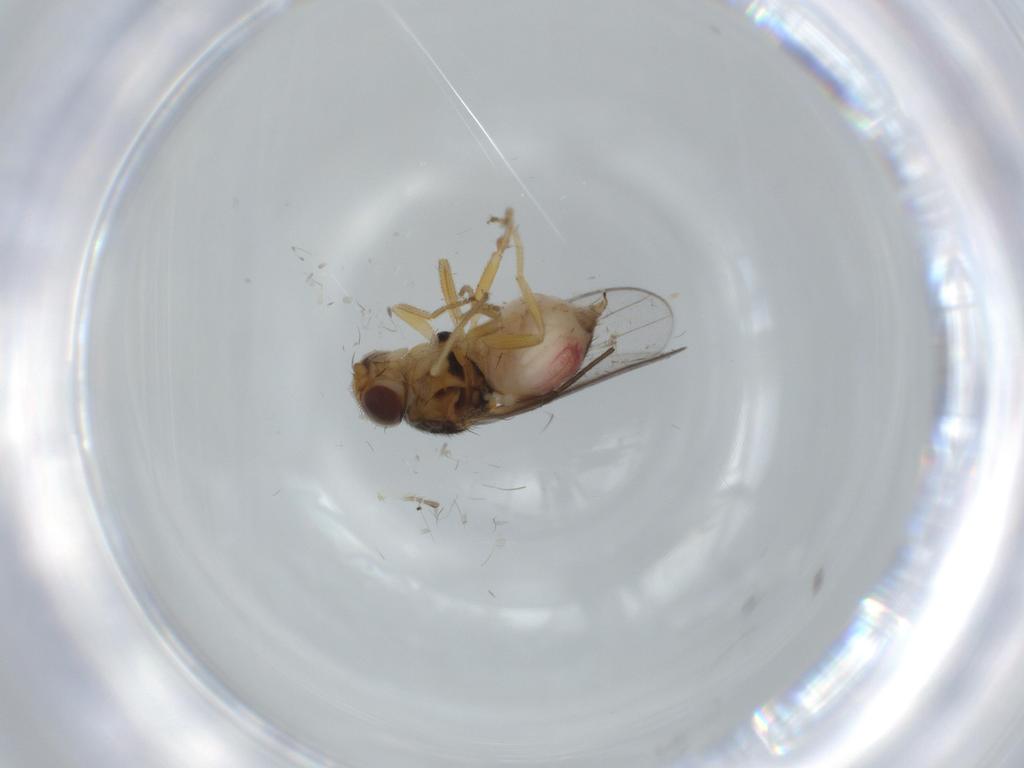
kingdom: Animalia
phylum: Arthropoda
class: Insecta
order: Diptera
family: Chloropidae
